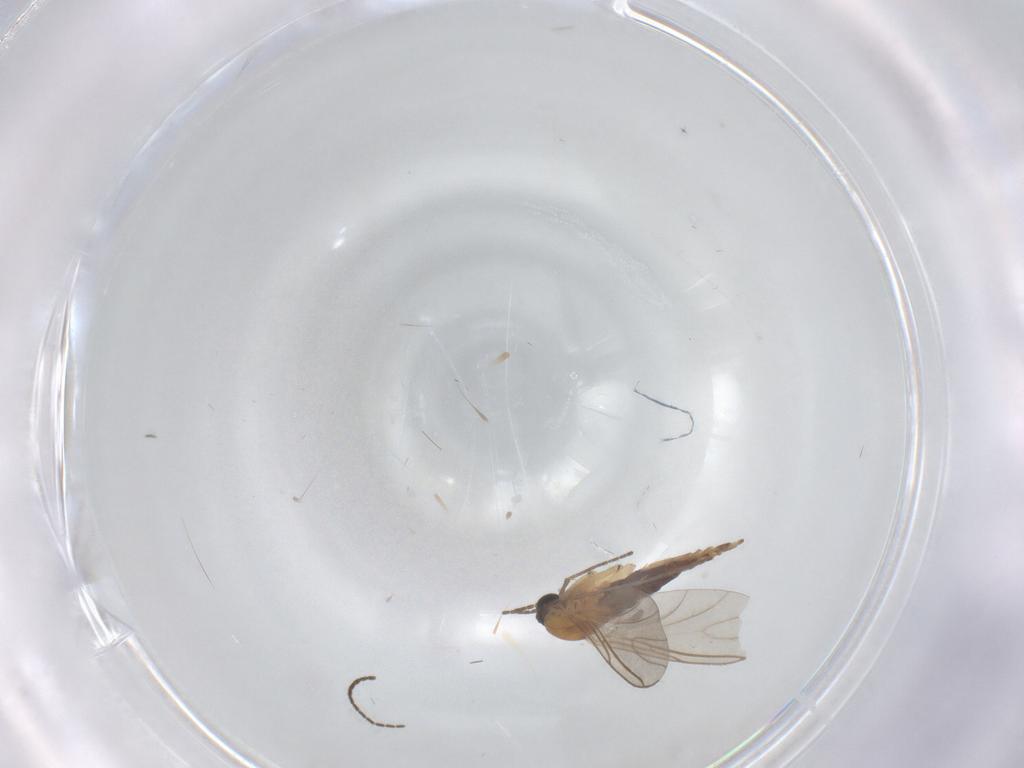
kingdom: Animalia
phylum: Arthropoda
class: Insecta
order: Diptera
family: Sciaridae
